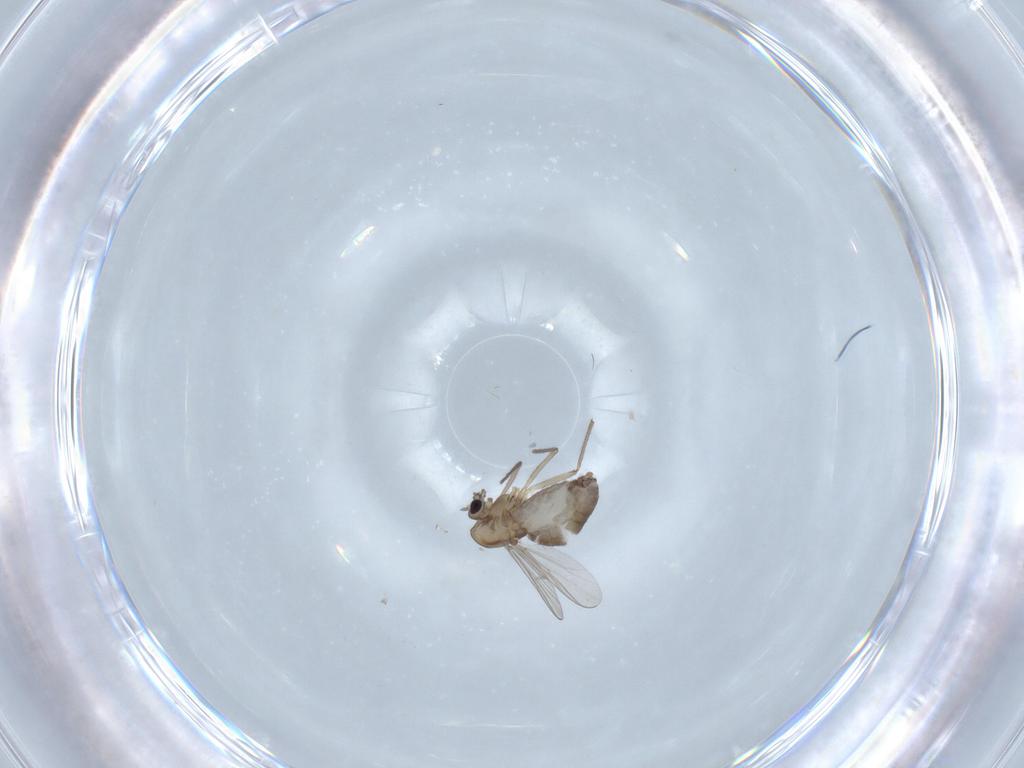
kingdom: Animalia
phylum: Arthropoda
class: Insecta
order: Diptera
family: Chironomidae
